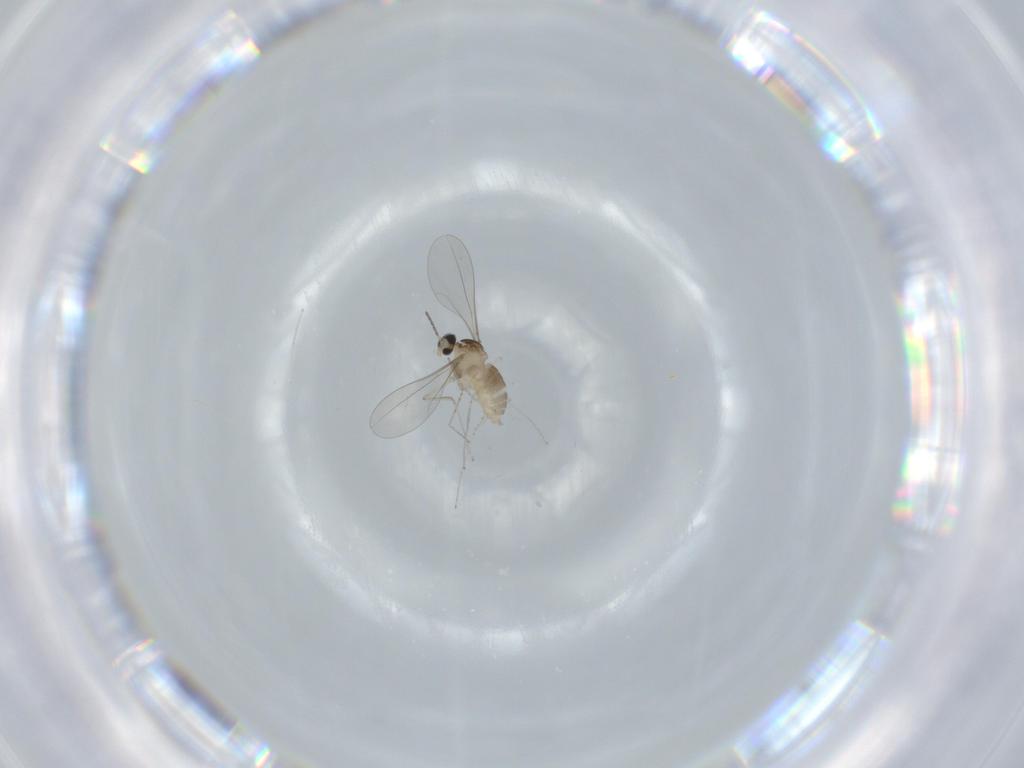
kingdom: Animalia
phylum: Arthropoda
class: Insecta
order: Diptera
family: Cecidomyiidae
